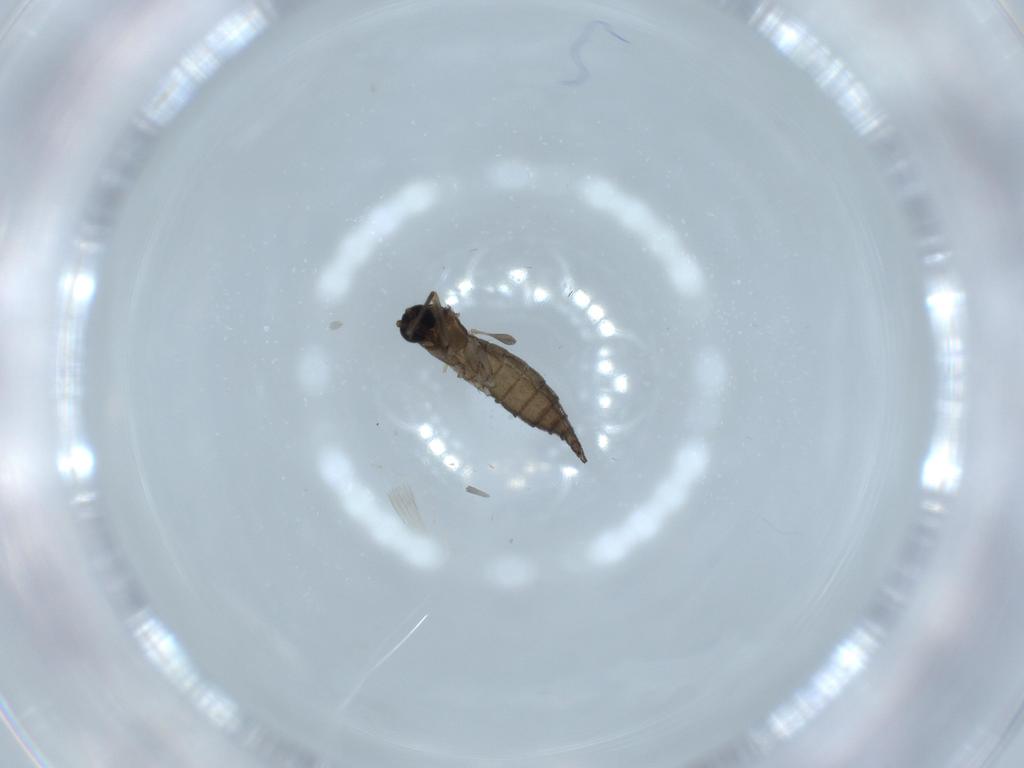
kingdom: Animalia
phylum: Arthropoda
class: Insecta
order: Diptera
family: Sciaridae
